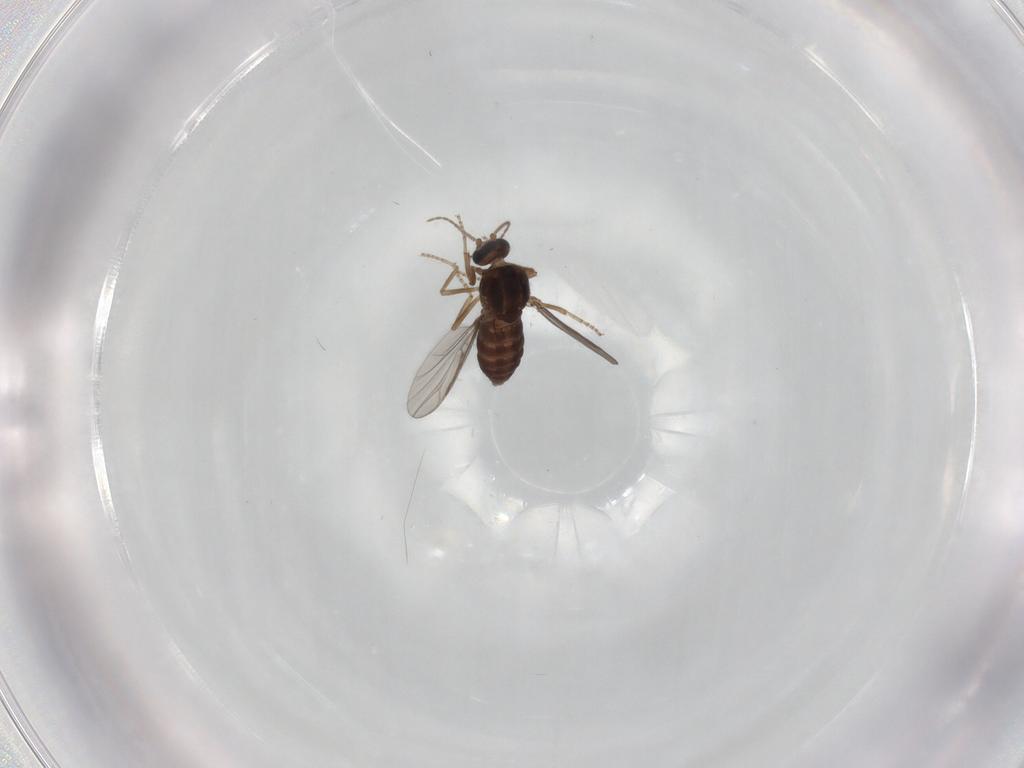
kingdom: Animalia
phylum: Arthropoda
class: Insecta
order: Diptera
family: Ceratopogonidae
